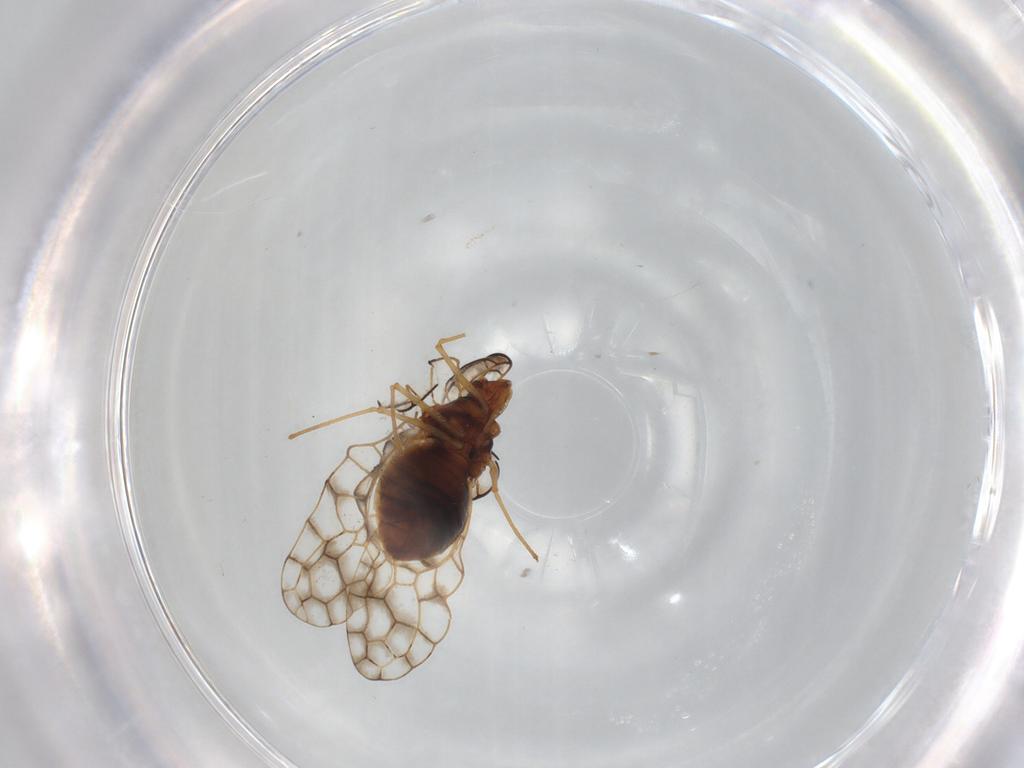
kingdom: Animalia
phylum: Arthropoda
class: Insecta
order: Hemiptera
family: Tingidae
